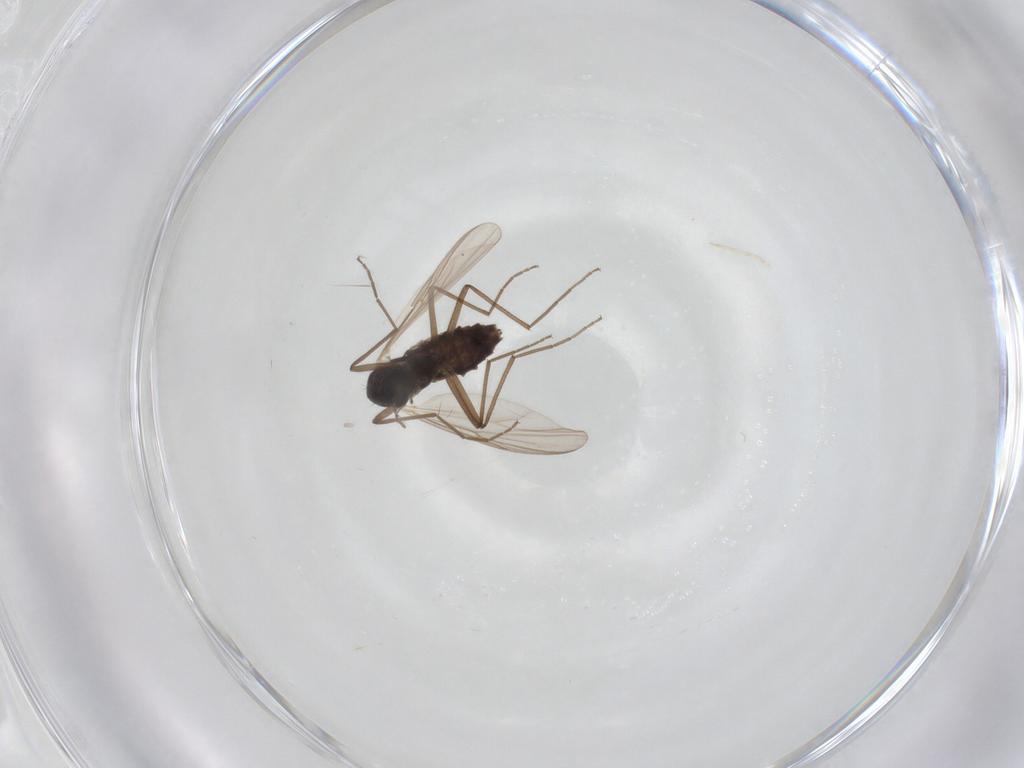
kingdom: Animalia
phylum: Arthropoda
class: Insecta
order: Diptera
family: Chironomidae
